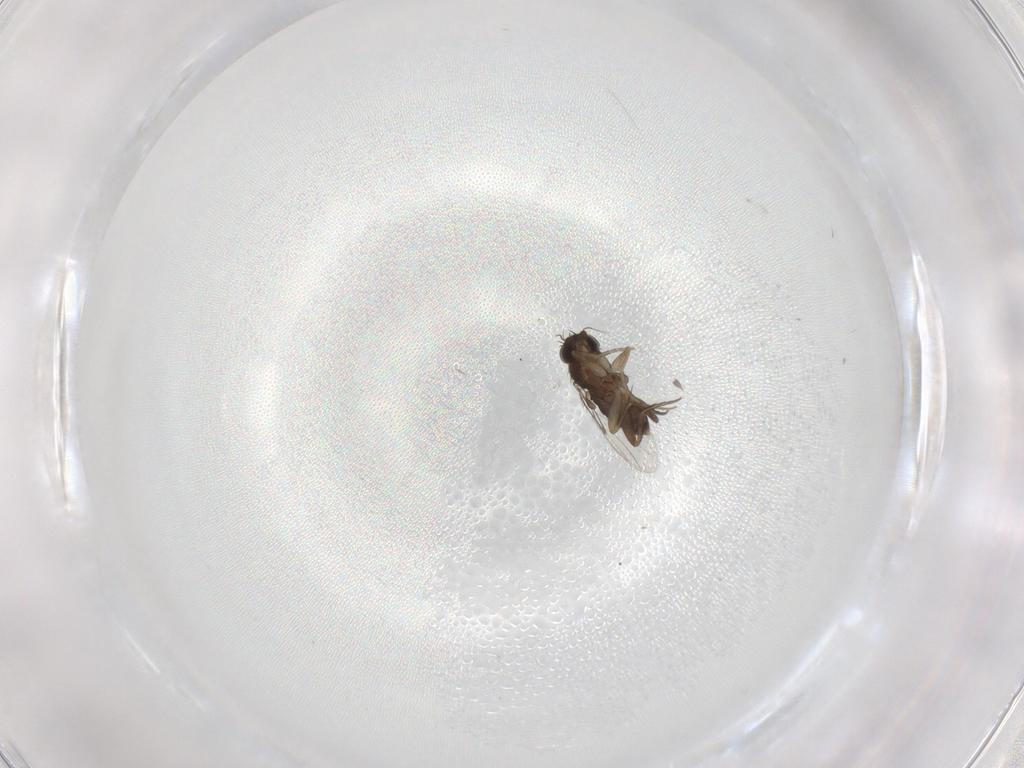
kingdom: Animalia
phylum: Arthropoda
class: Insecta
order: Diptera
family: Phoridae
